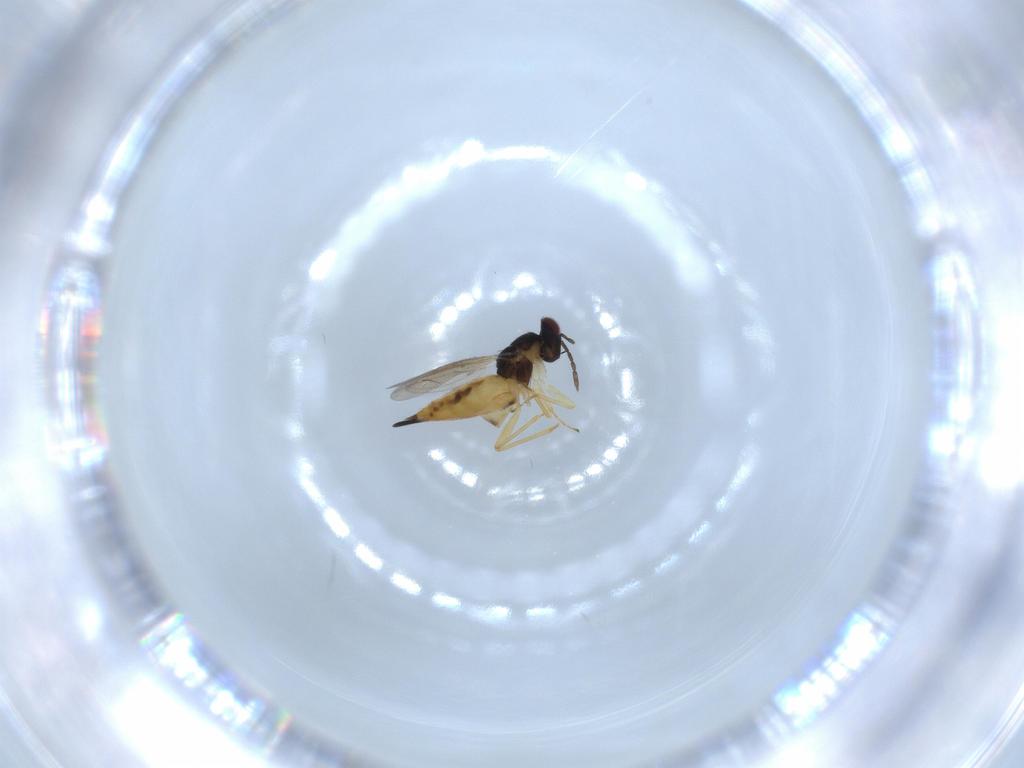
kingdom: Animalia
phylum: Arthropoda
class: Insecta
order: Hymenoptera
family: Eulophidae
